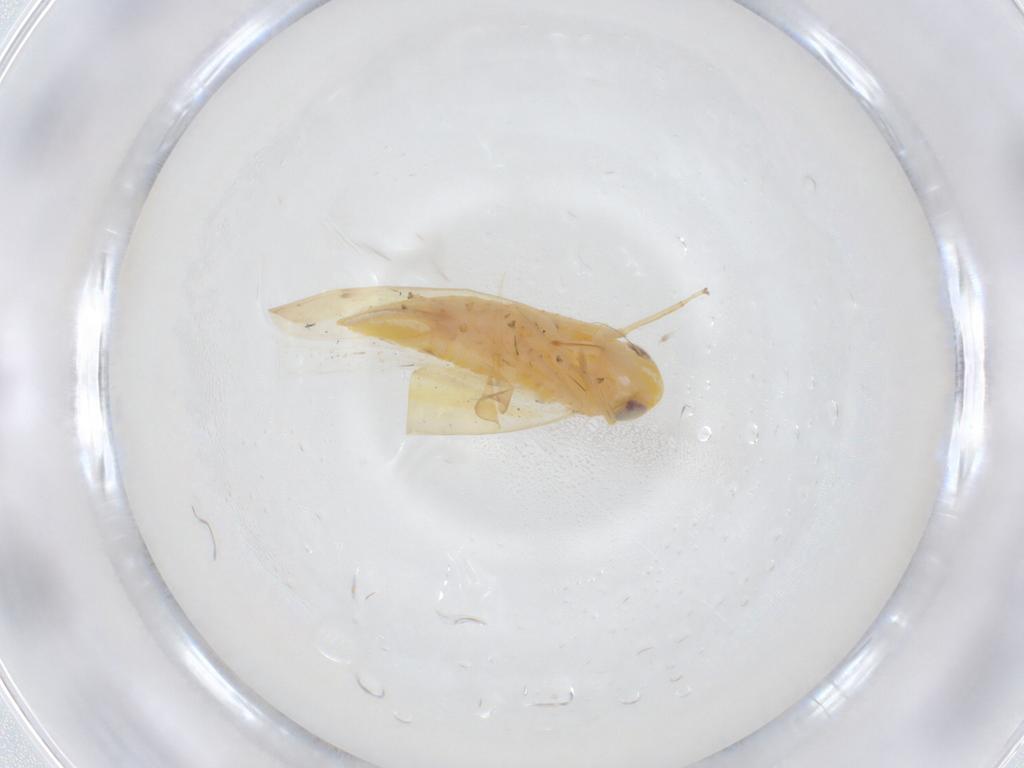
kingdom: Animalia
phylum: Arthropoda
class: Insecta
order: Hemiptera
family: Cicadellidae
